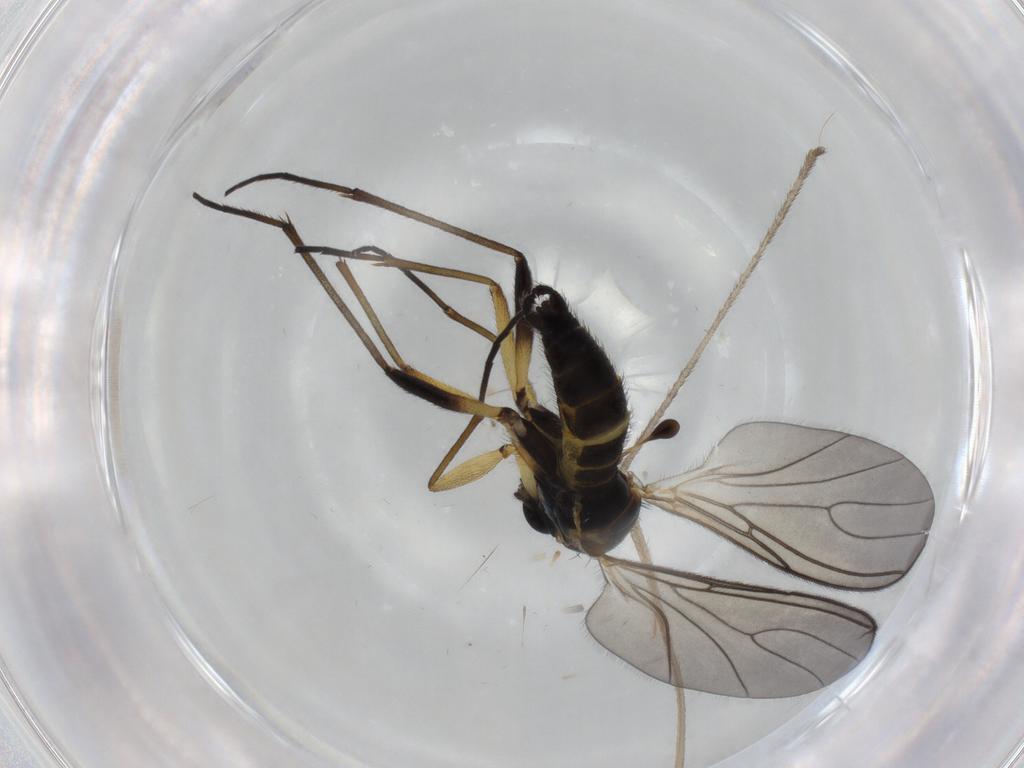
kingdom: Animalia
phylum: Arthropoda
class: Insecta
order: Diptera
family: Sciaridae
